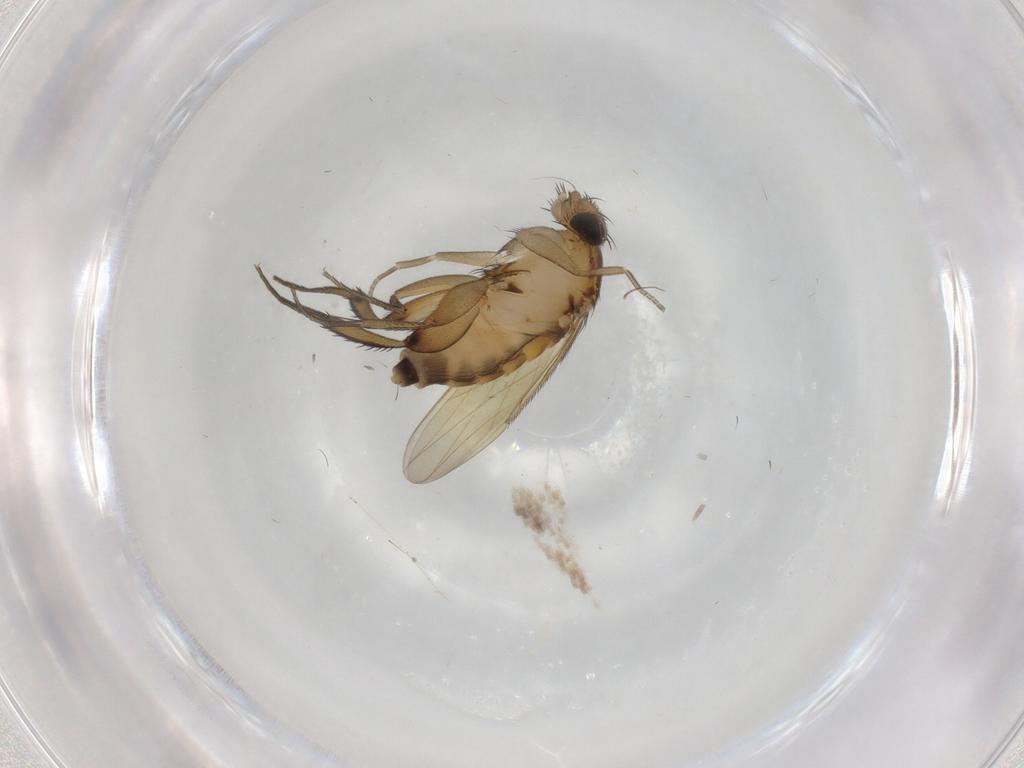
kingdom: Animalia
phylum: Arthropoda
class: Insecta
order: Diptera
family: Phoridae
